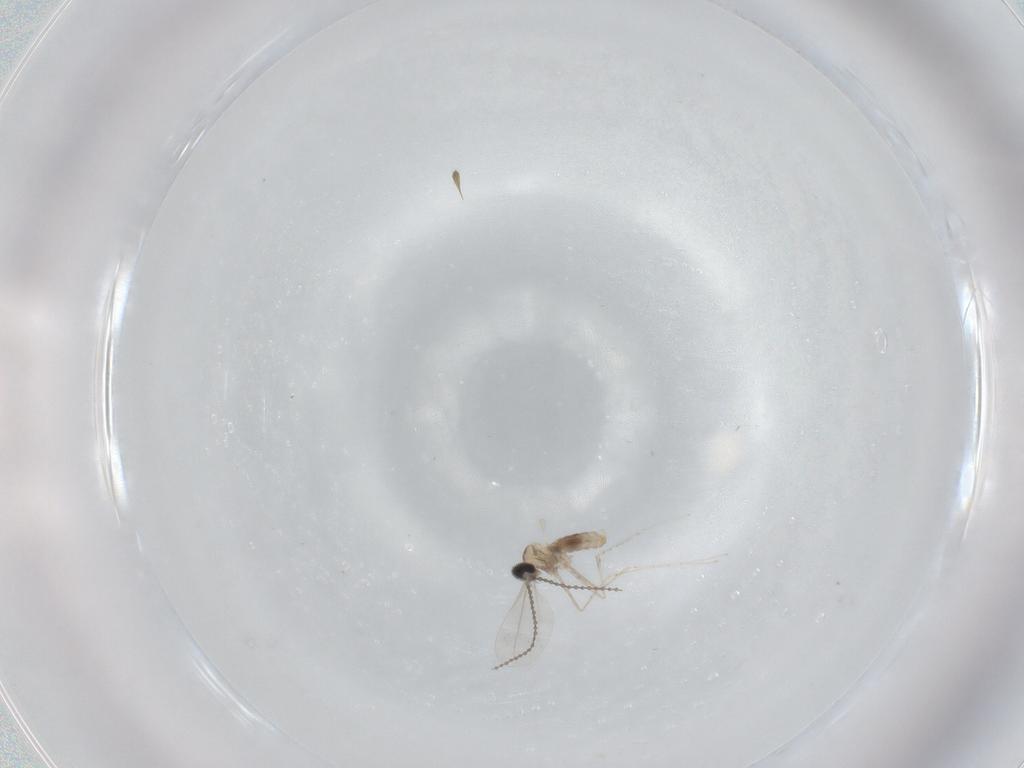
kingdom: Animalia
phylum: Arthropoda
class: Insecta
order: Diptera
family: Cecidomyiidae
